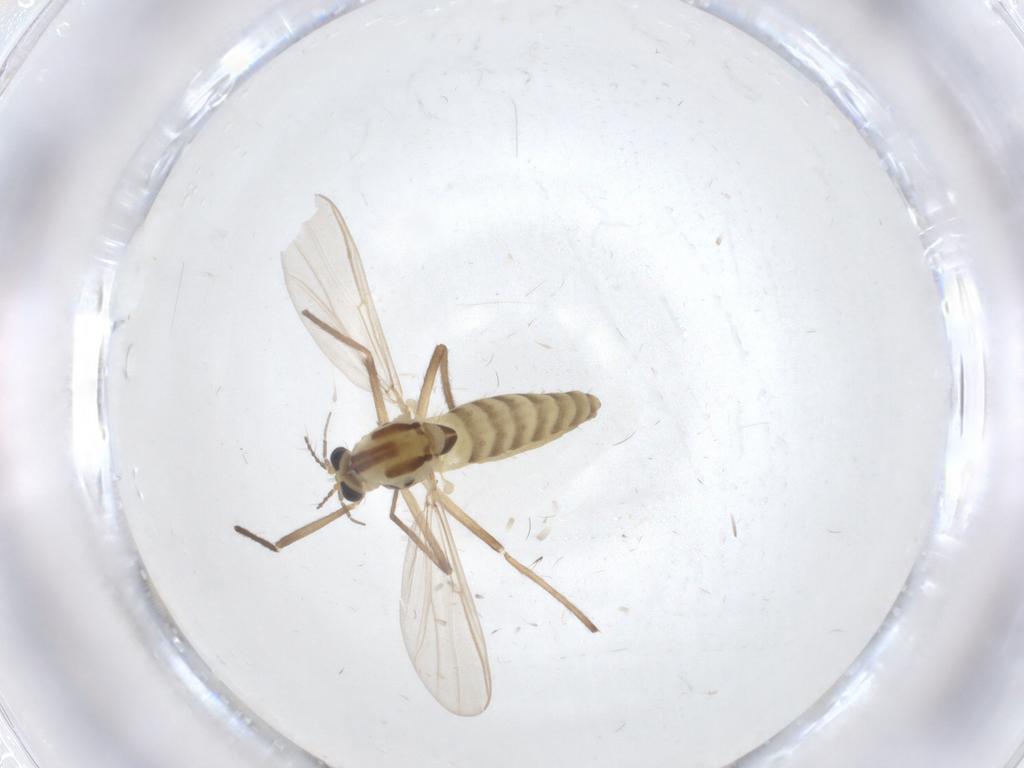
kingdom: Animalia
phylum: Arthropoda
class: Insecta
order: Diptera
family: Chironomidae
